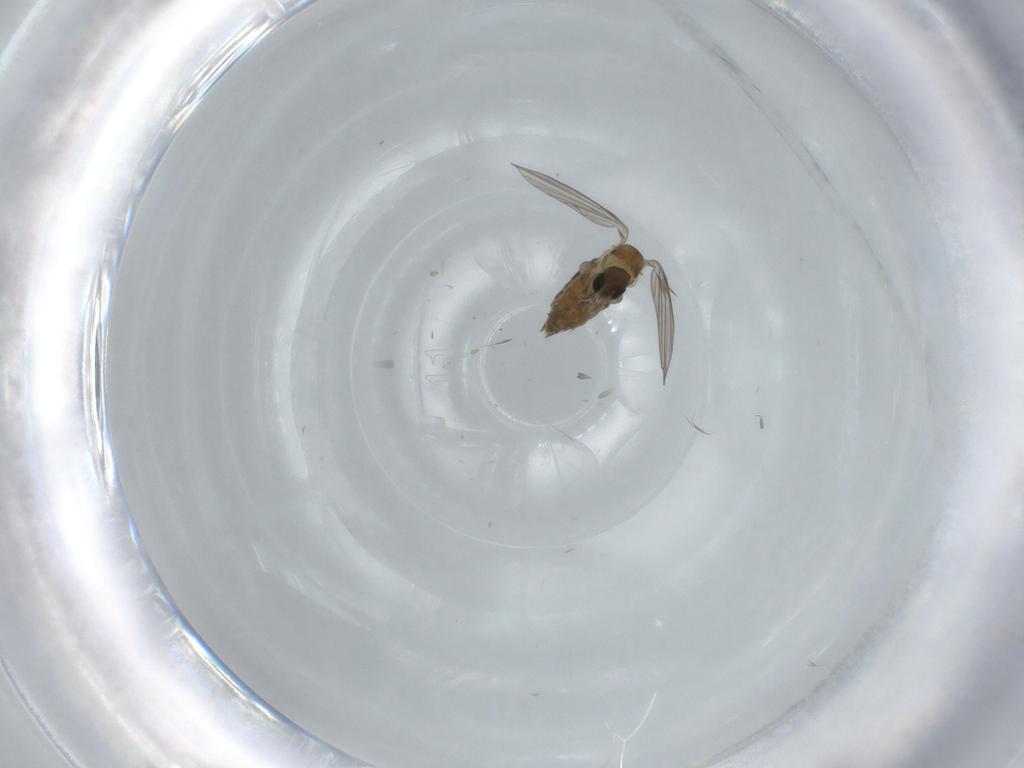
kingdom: Animalia
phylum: Arthropoda
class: Insecta
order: Diptera
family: Psychodidae
